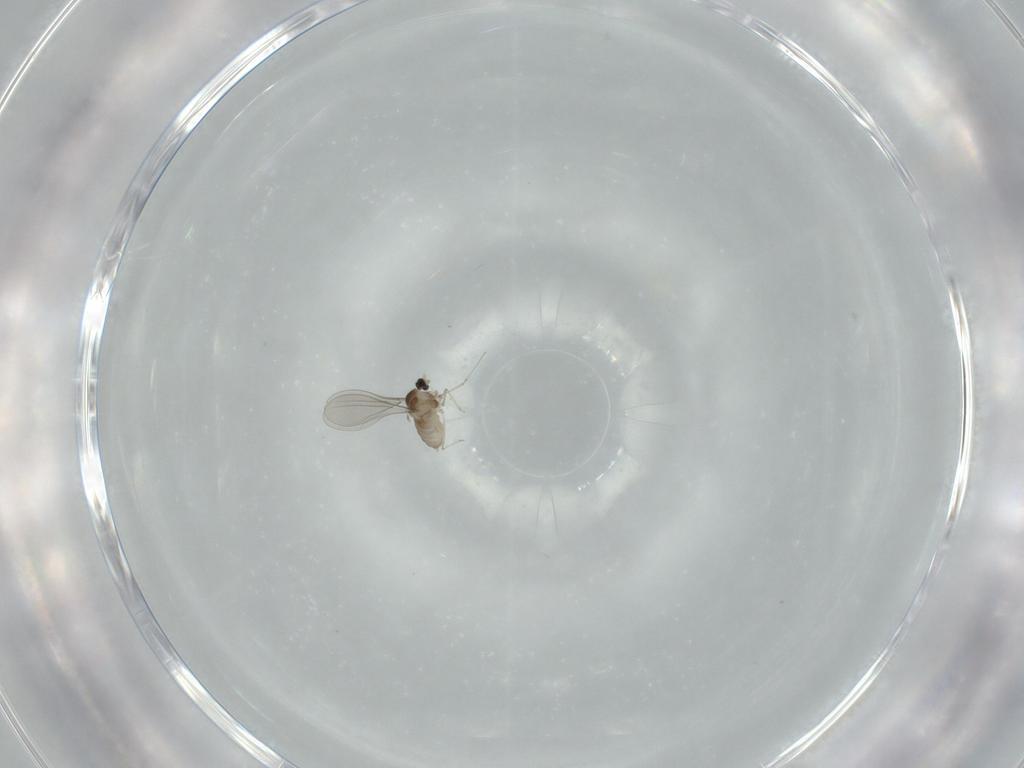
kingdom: Animalia
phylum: Arthropoda
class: Insecta
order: Diptera
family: Sciaridae
